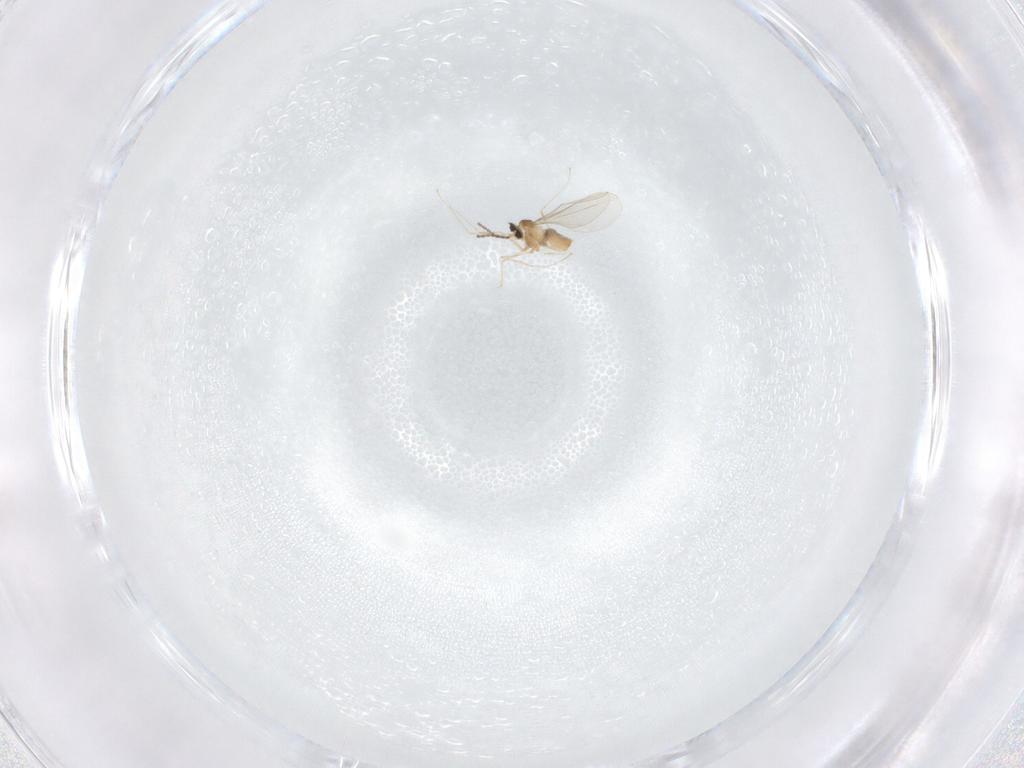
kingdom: Animalia
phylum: Arthropoda
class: Insecta
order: Diptera
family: Cecidomyiidae
